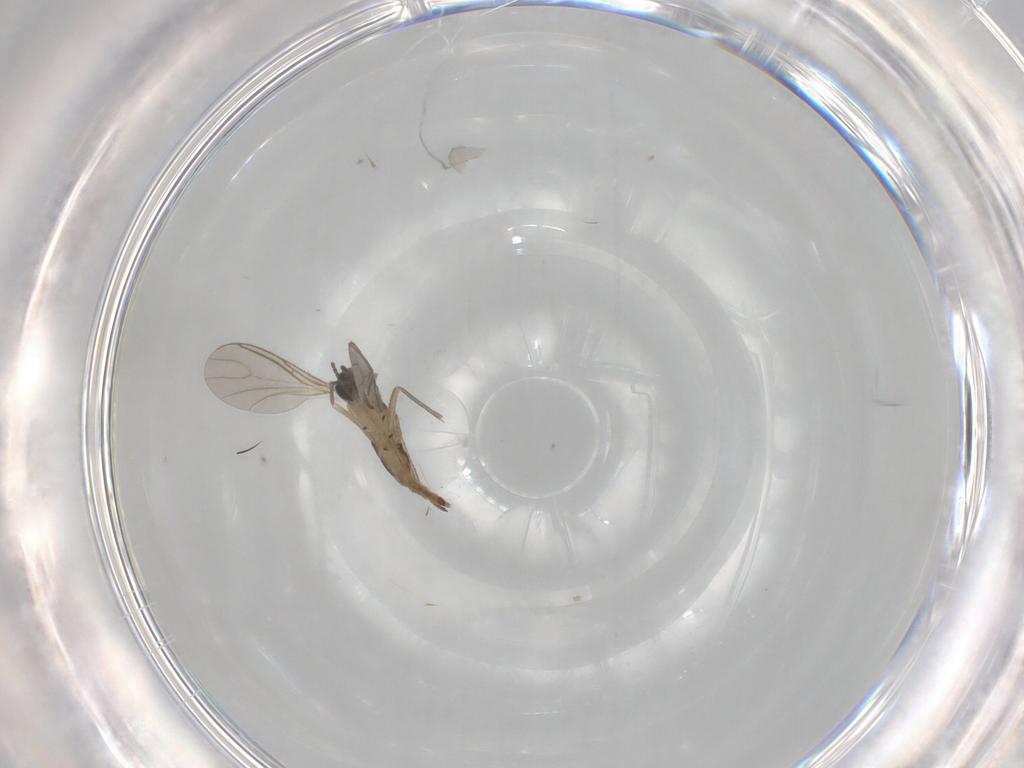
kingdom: Animalia
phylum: Arthropoda
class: Insecta
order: Diptera
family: Sciaridae
